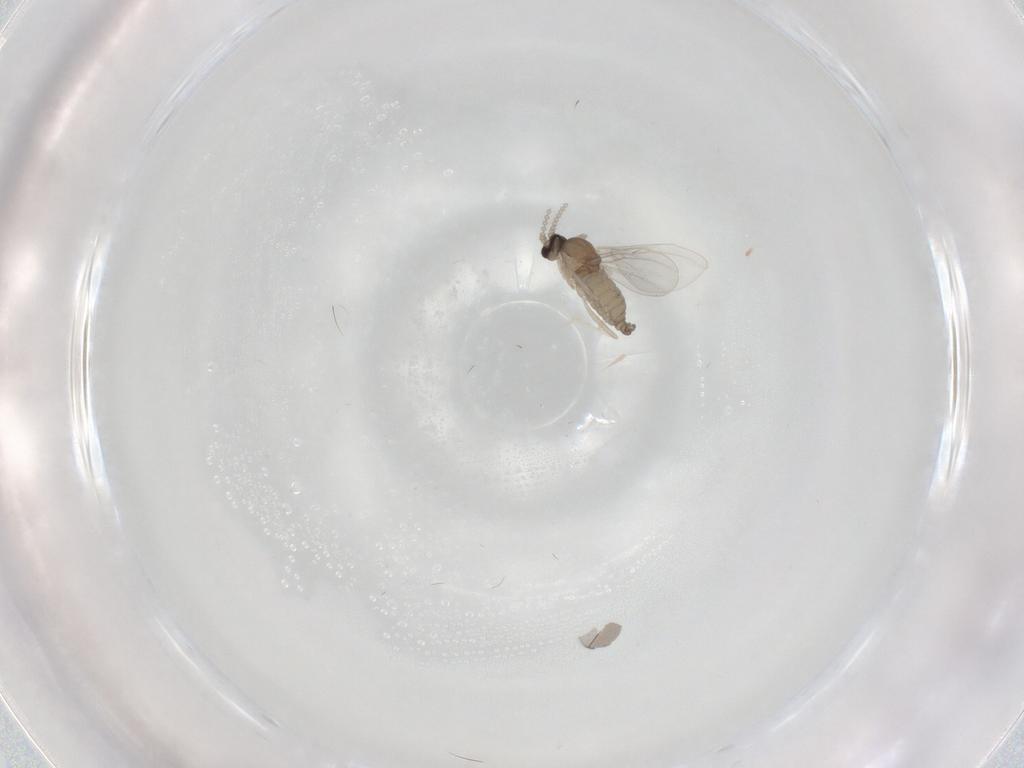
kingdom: Animalia
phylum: Arthropoda
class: Insecta
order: Diptera
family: Cecidomyiidae
